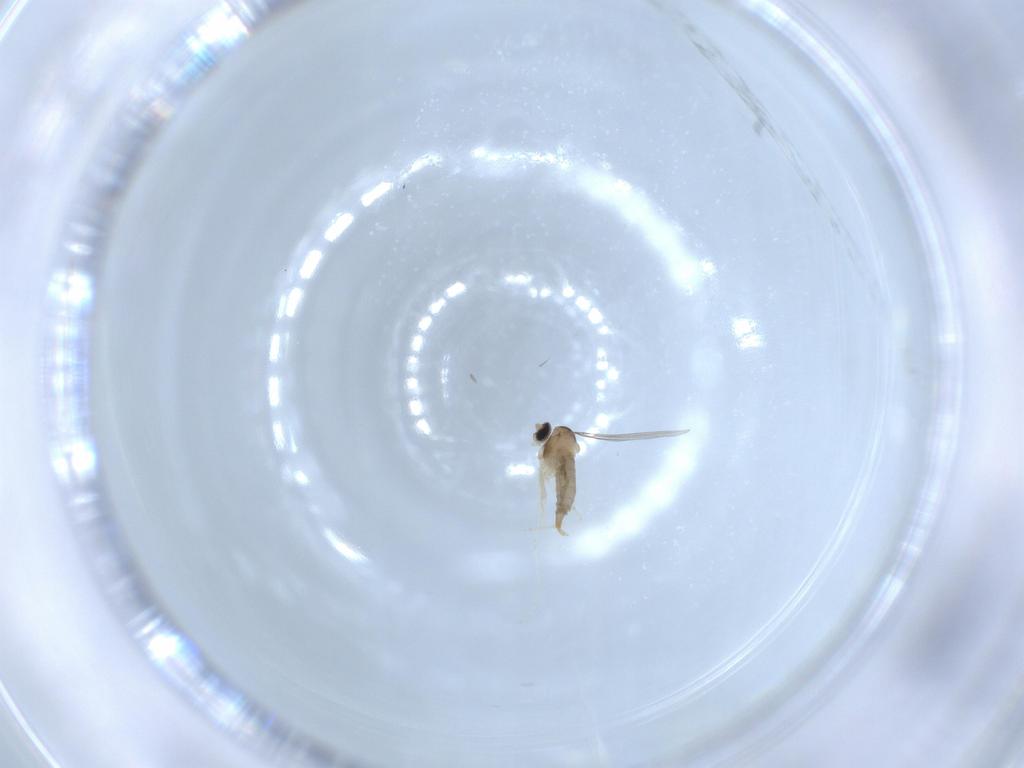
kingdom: Animalia
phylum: Arthropoda
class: Insecta
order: Diptera
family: Cecidomyiidae
